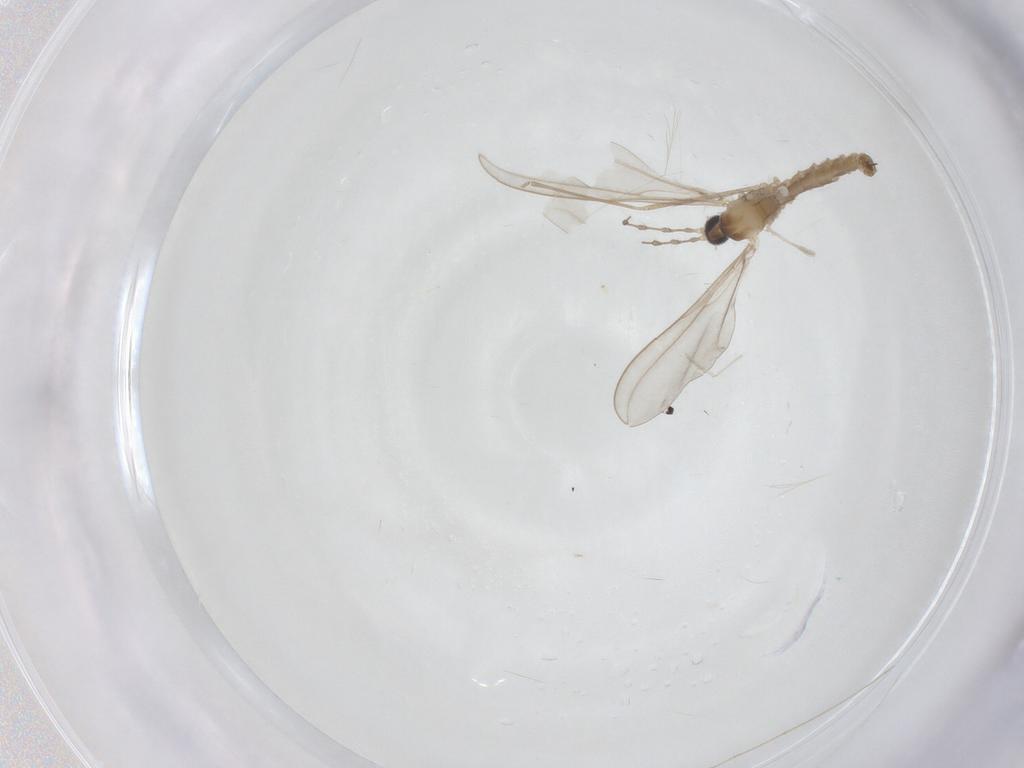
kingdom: Animalia
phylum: Arthropoda
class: Insecta
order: Diptera
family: Cecidomyiidae
